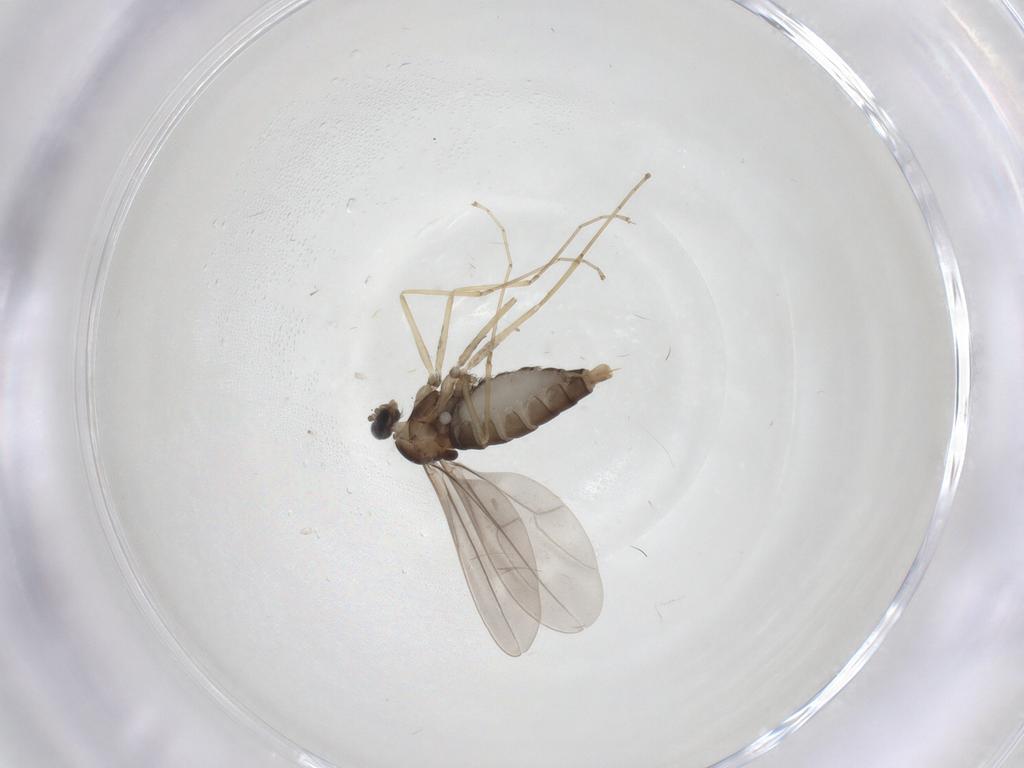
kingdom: Animalia
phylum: Arthropoda
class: Insecta
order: Diptera
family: Cecidomyiidae
